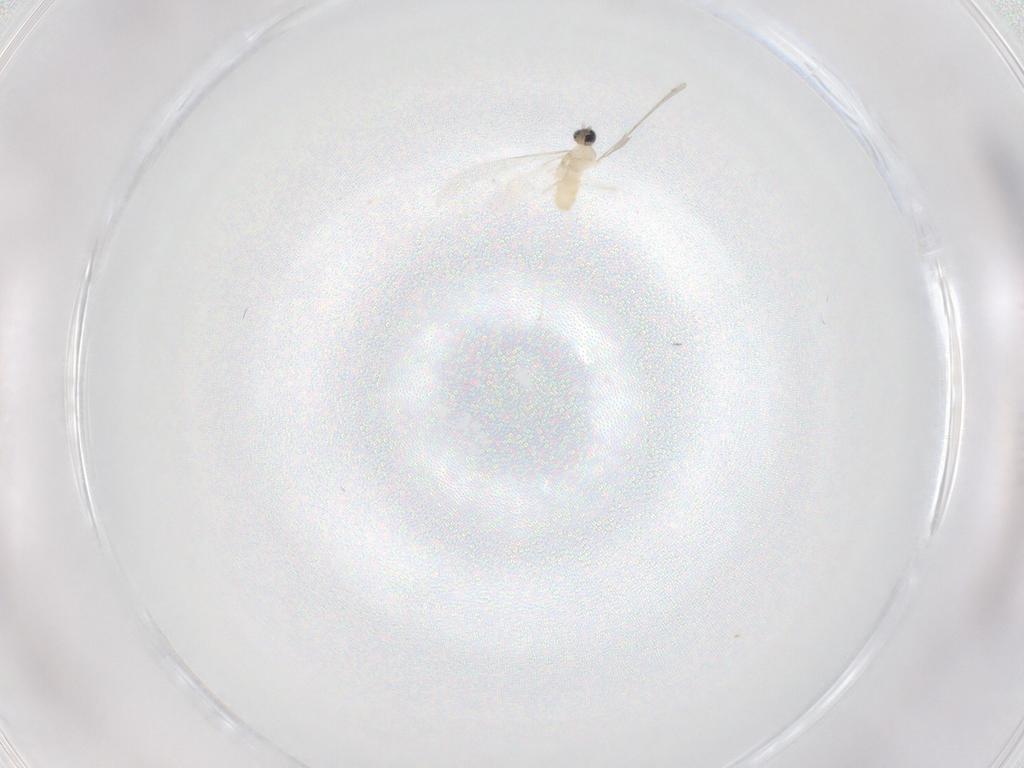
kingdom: Animalia
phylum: Arthropoda
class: Insecta
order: Diptera
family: Cecidomyiidae
